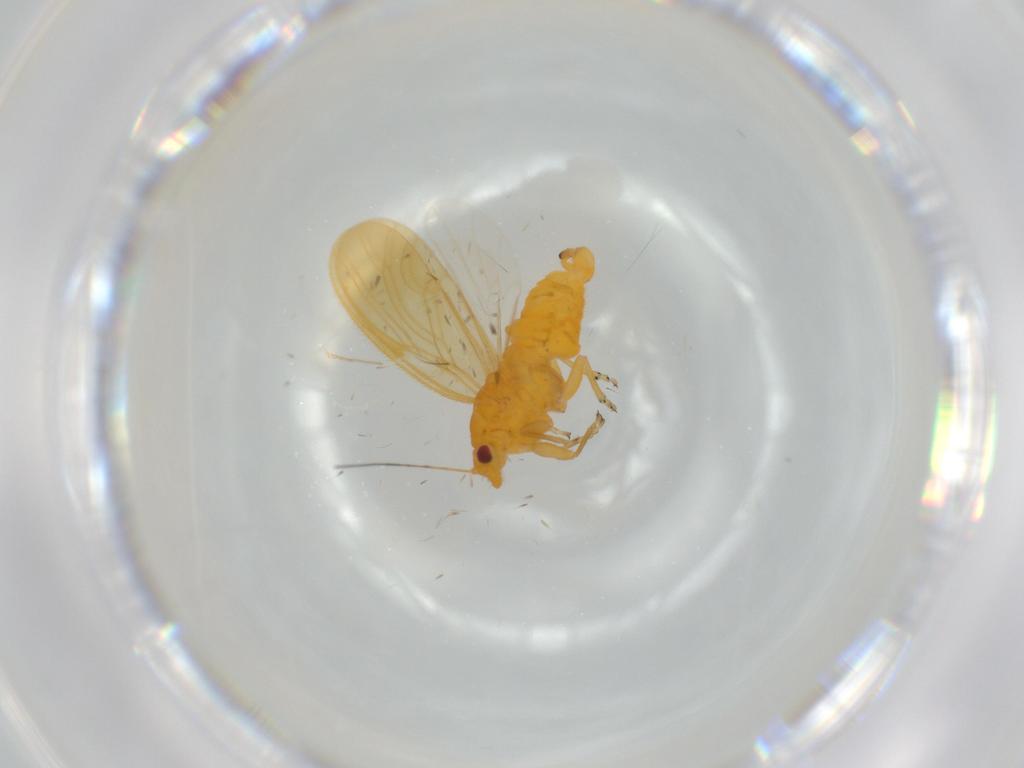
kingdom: Animalia
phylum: Arthropoda
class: Insecta
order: Hemiptera
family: Psyllidae
